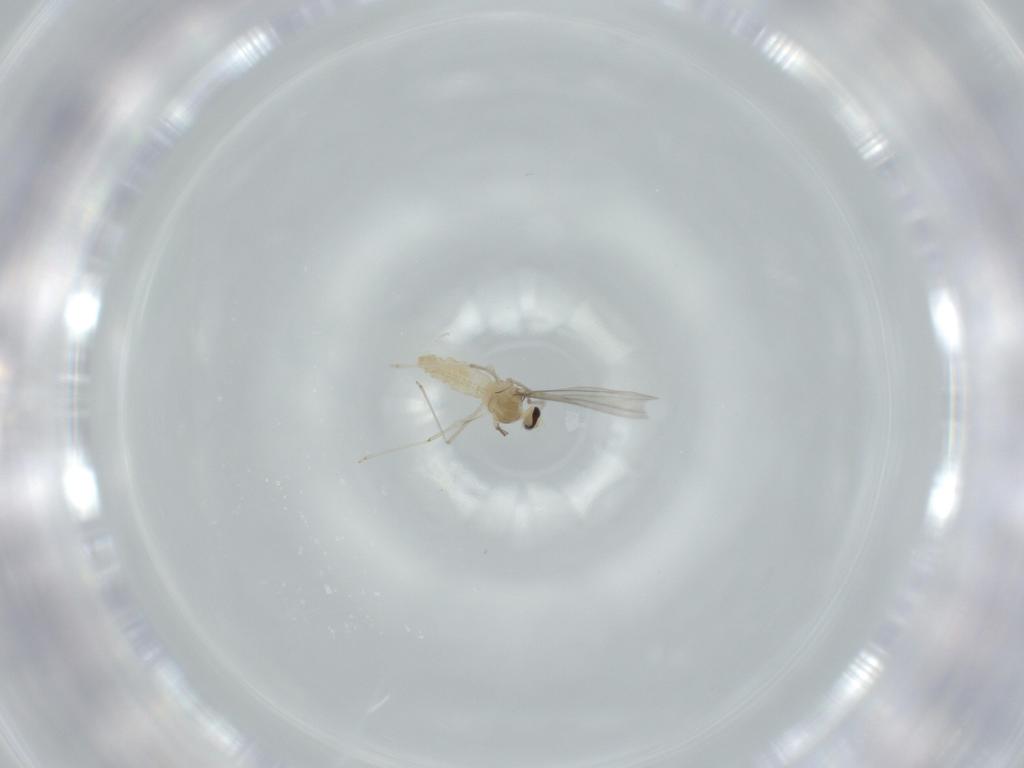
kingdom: Animalia
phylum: Arthropoda
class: Insecta
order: Diptera
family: Cecidomyiidae
